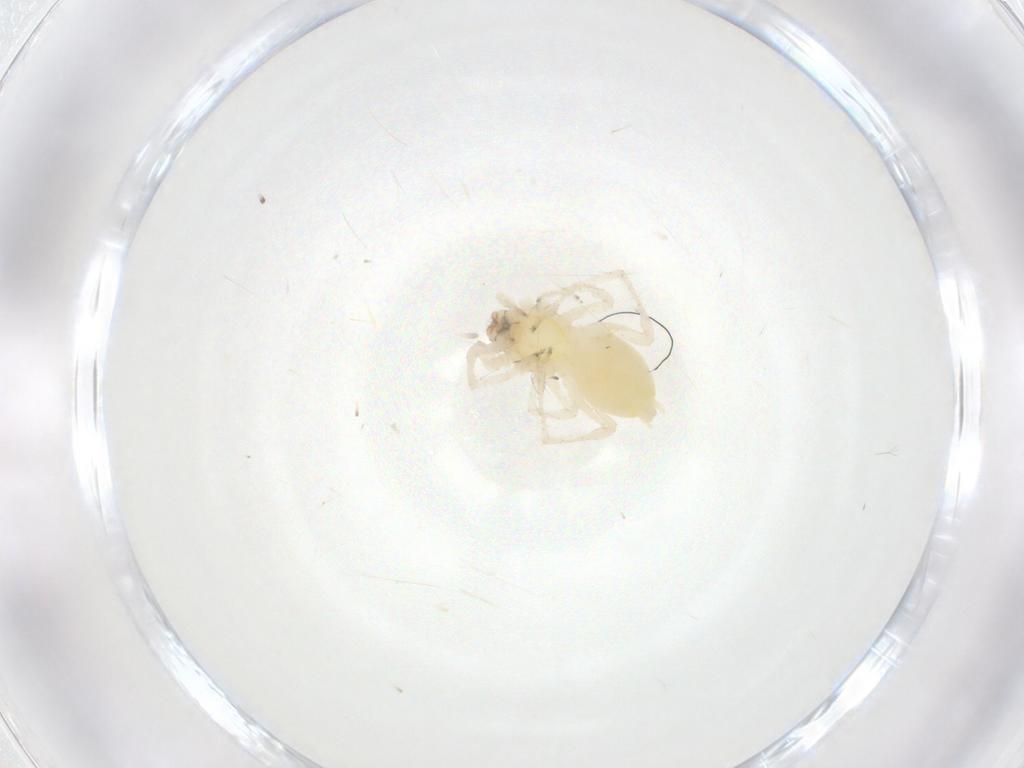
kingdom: Animalia
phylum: Arthropoda
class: Arachnida
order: Araneae
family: Anyphaenidae
